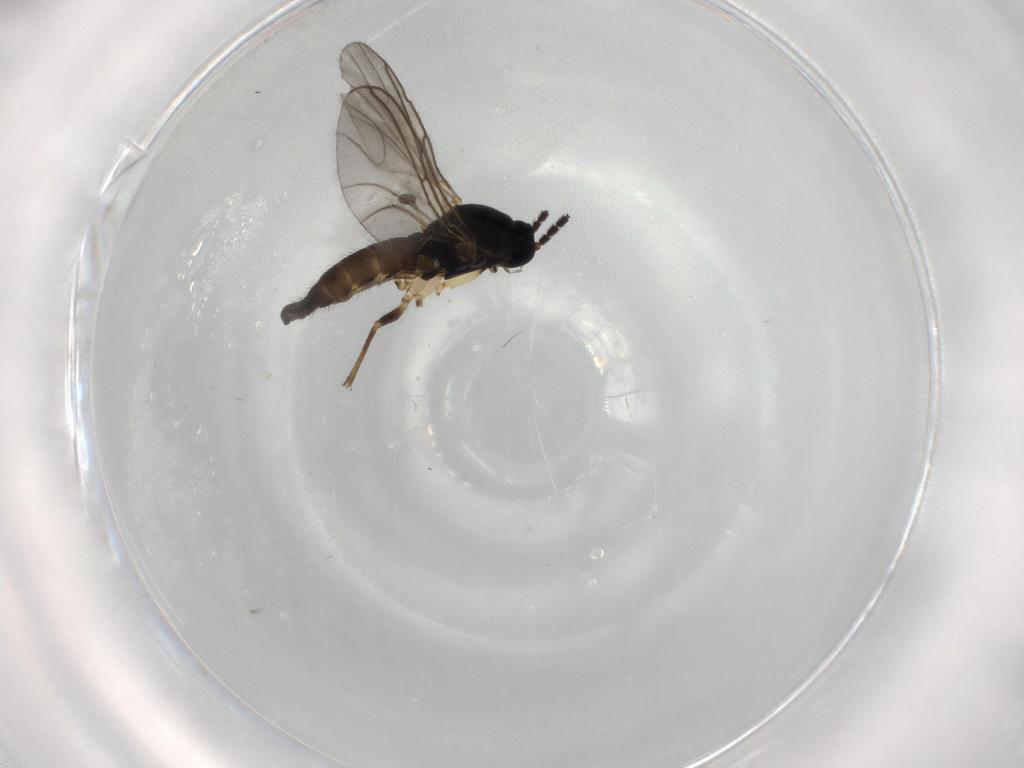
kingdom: Animalia
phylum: Arthropoda
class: Insecta
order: Diptera
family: Sciaridae
